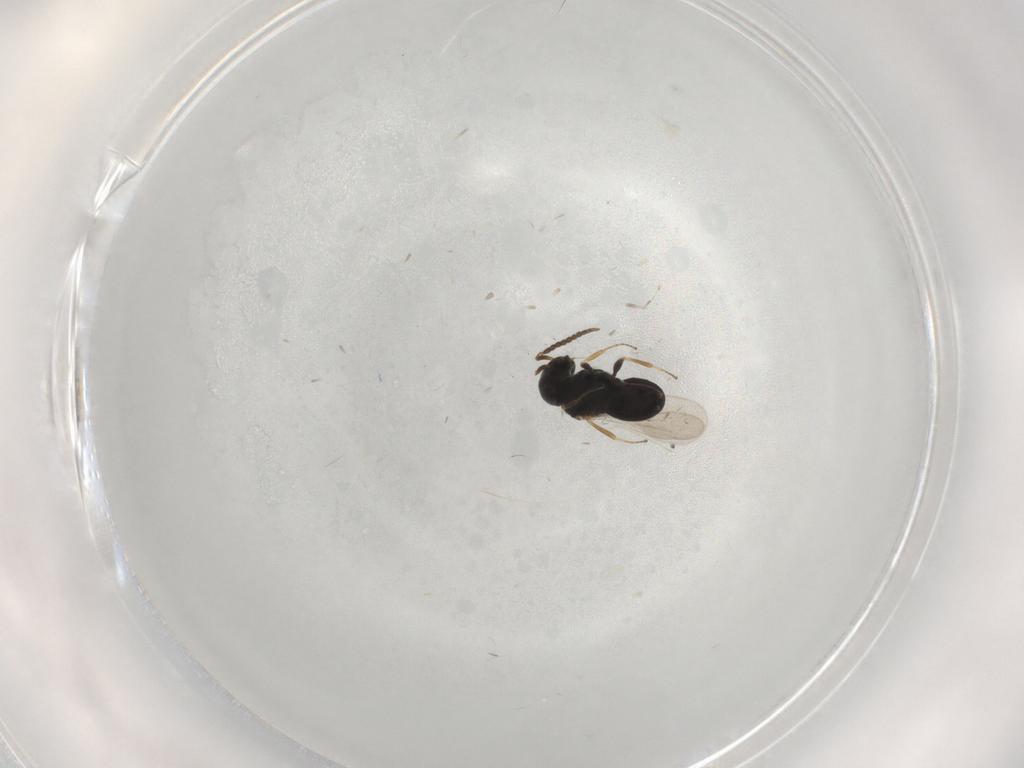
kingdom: Animalia
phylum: Arthropoda
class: Insecta
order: Hymenoptera
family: Scelionidae
